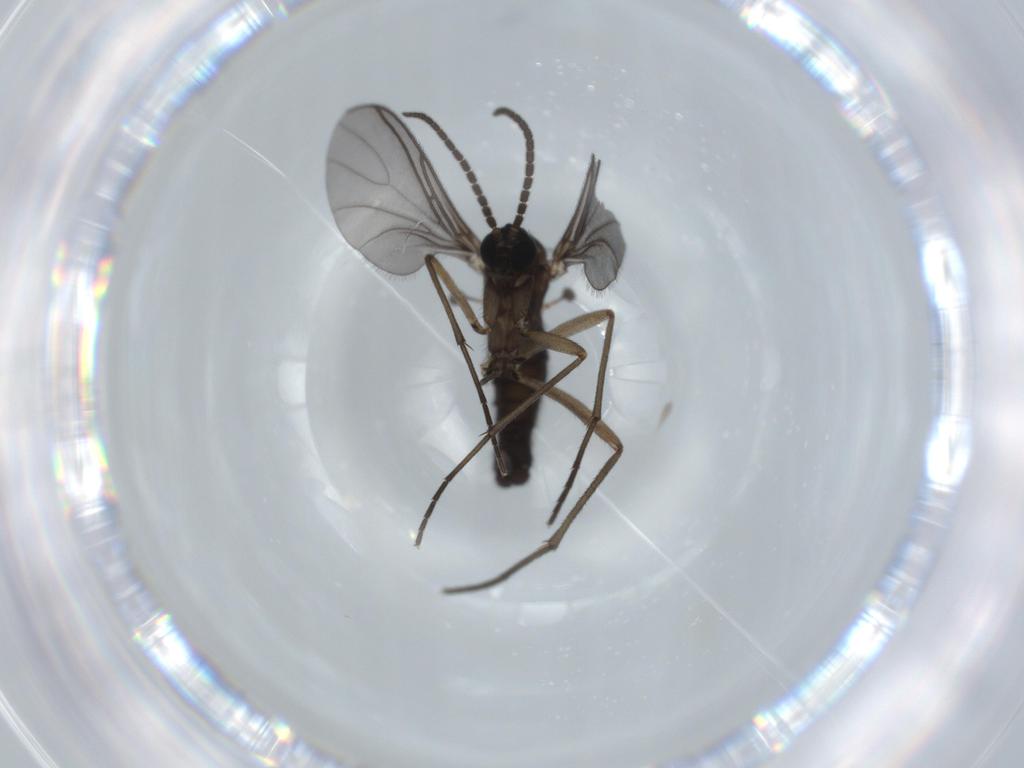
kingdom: Animalia
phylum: Arthropoda
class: Insecta
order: Diptera
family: Sciaridae
